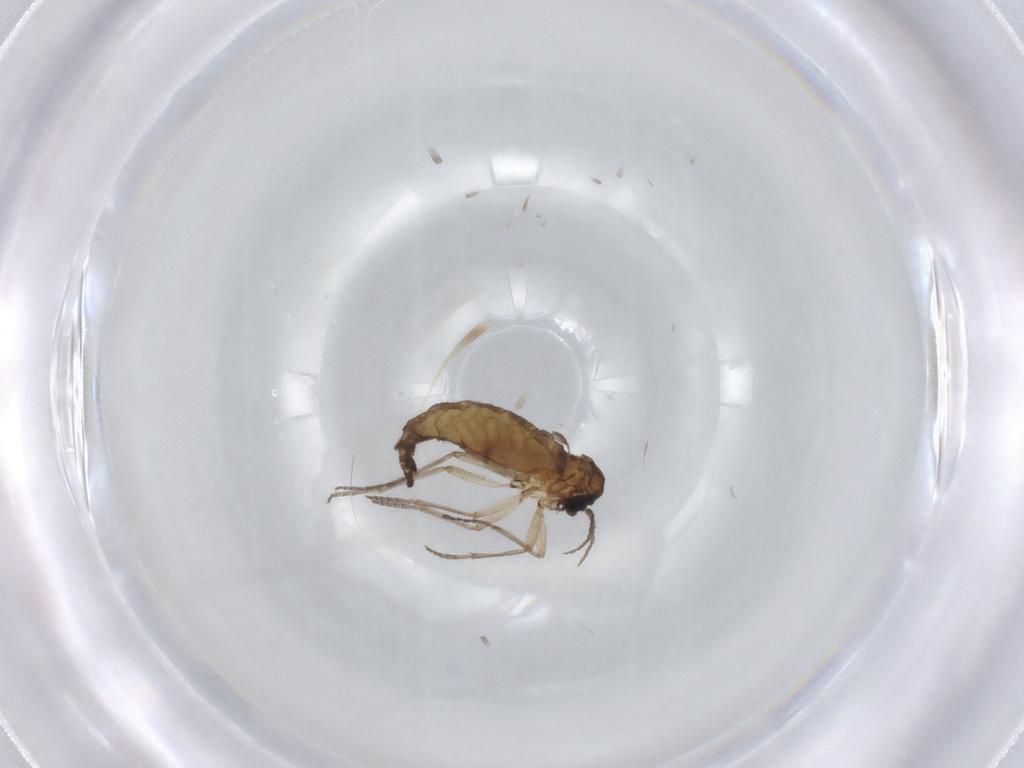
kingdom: Animalia
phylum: Arthropoda
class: Insecta
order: Diptera
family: Sciaridae
